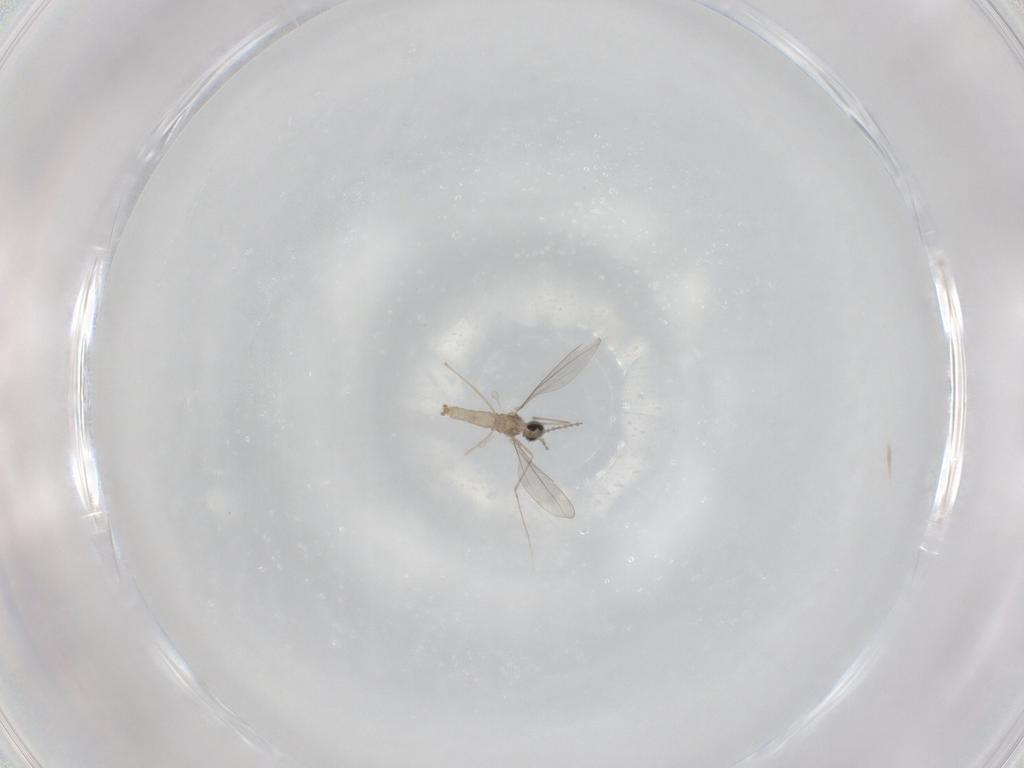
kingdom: Animalia
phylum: Arthropoda
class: Insecta
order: Diptera
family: Cecidomyiidae
